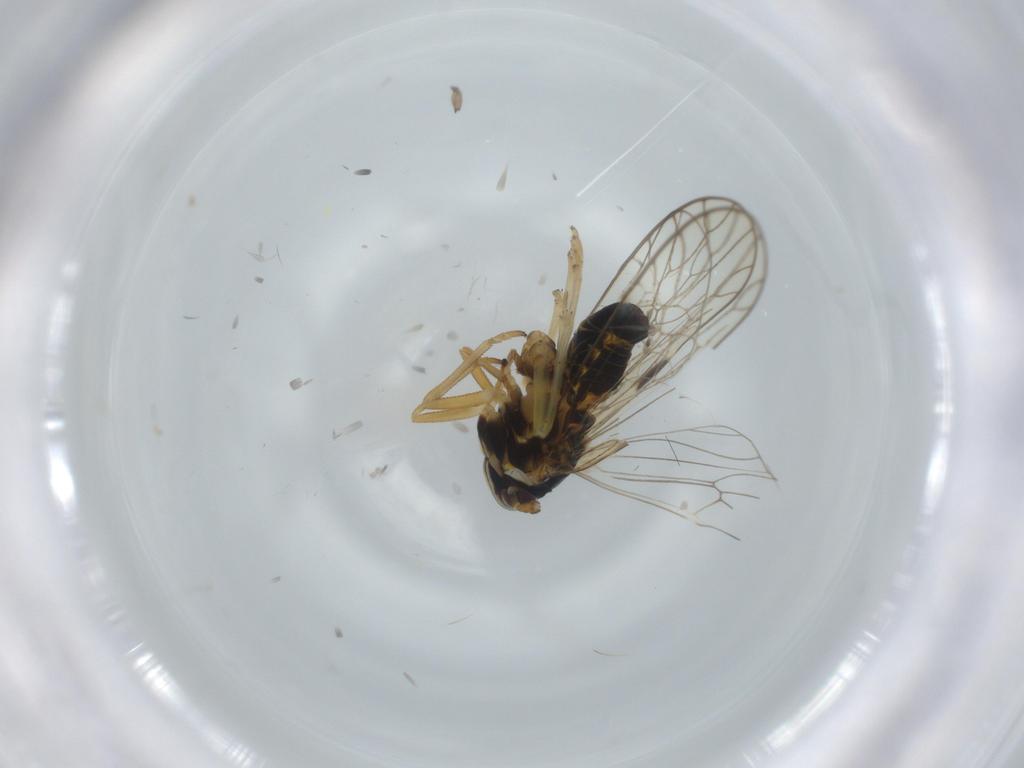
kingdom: Animalia
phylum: Arthropoda
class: Insecta
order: Diptera
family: Hybotidae
